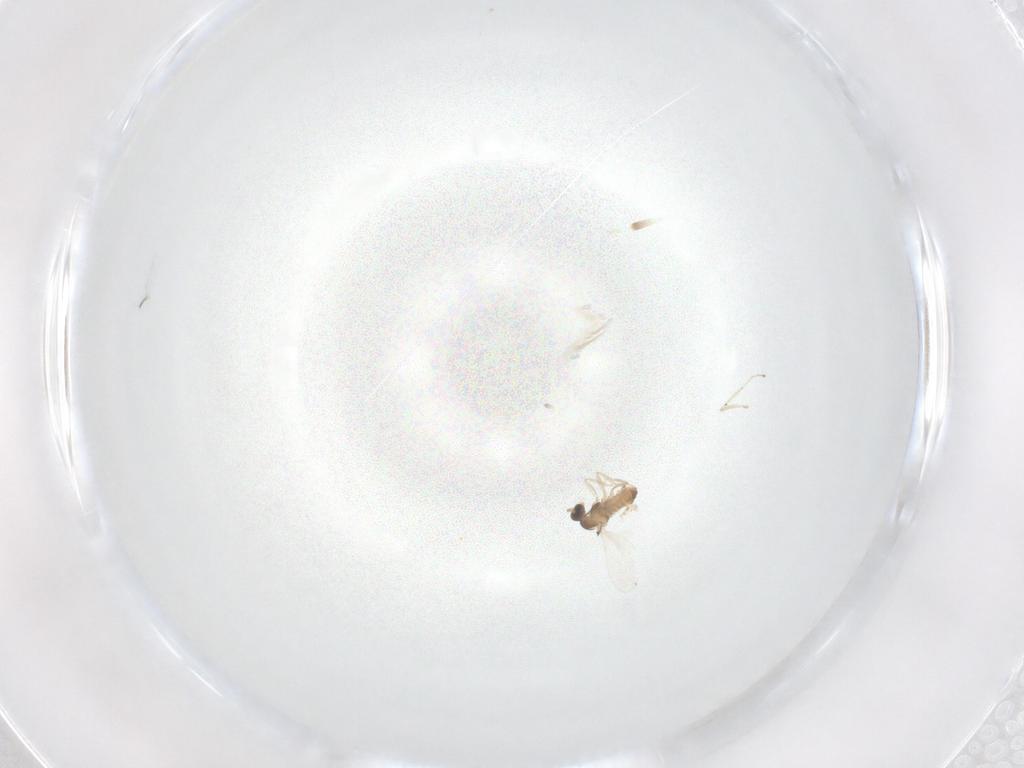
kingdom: Animalia
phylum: Arthropoda
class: Insecta
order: Diptera
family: Cecidomyiidae
